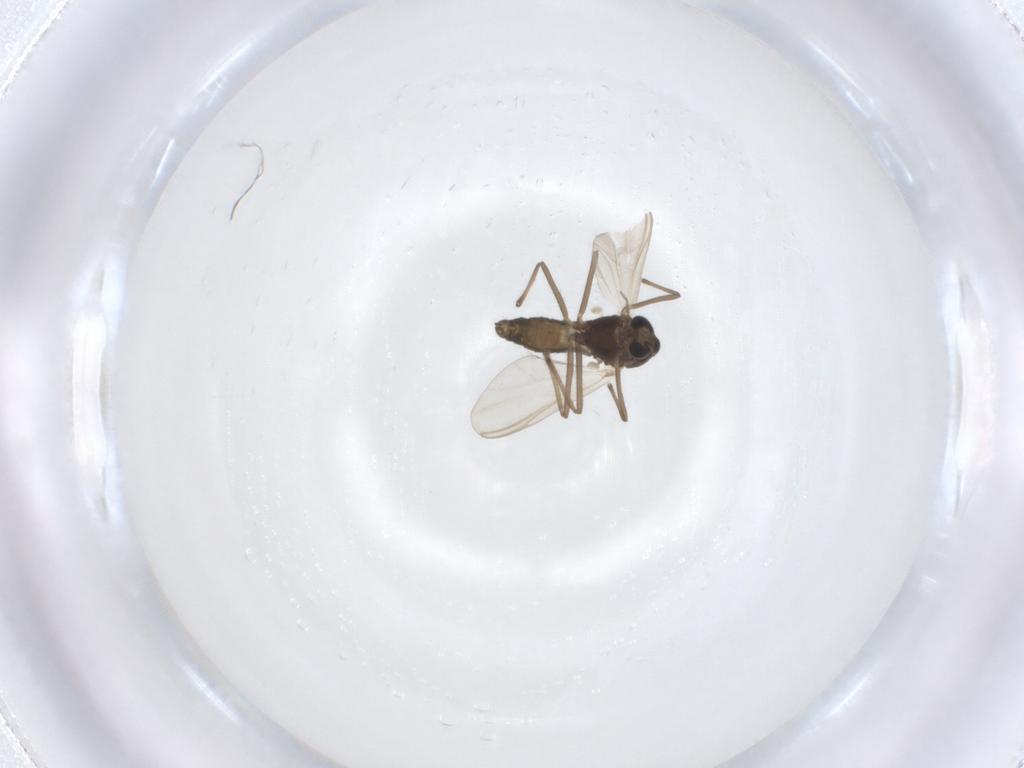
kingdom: Animalia
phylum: Arthropoda
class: Insecta
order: Diptera
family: Chironomidae
